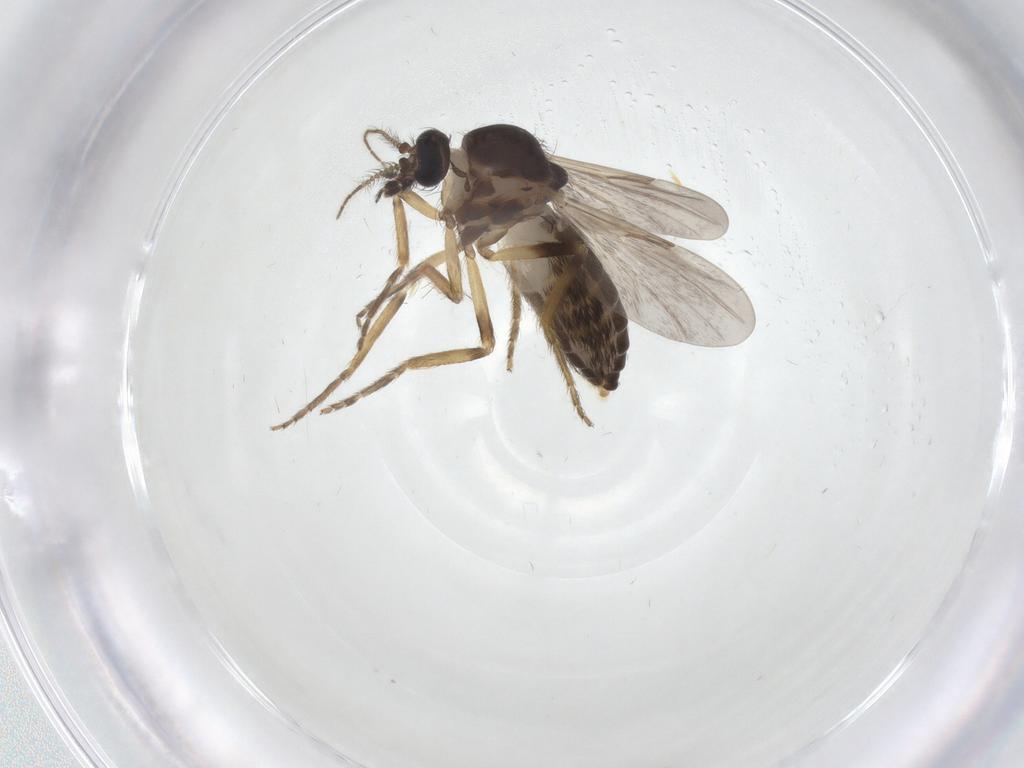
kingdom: Animalia
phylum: Arthropoda
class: Insecta
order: Diptera
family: Ceratopogonidae
